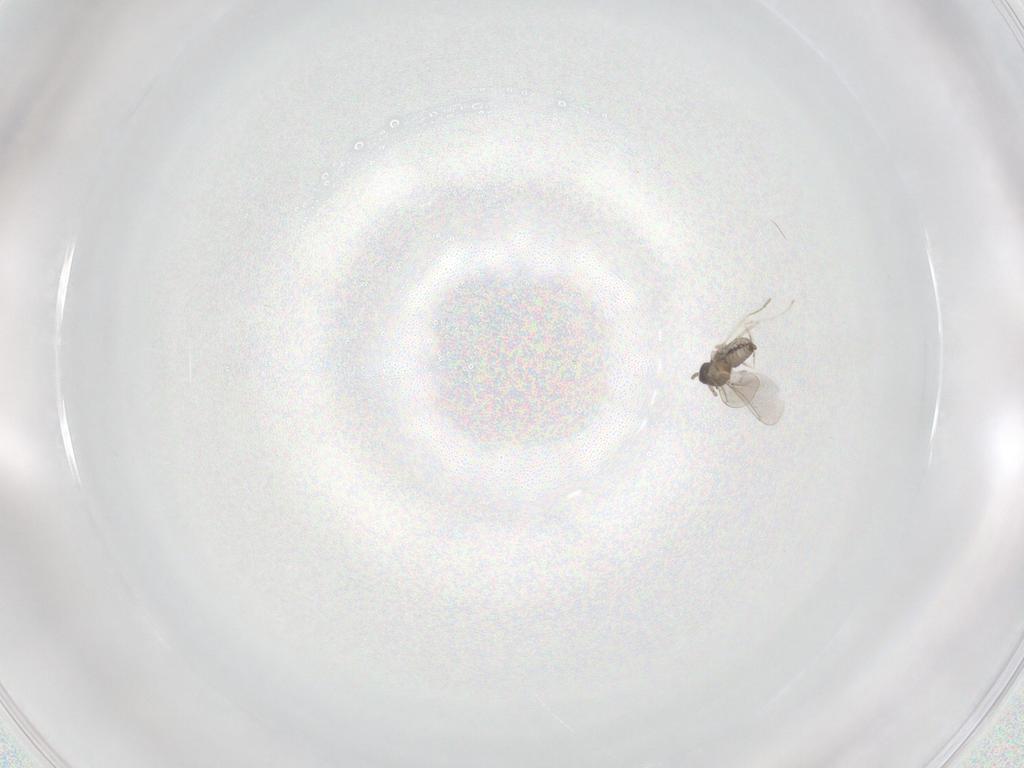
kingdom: Animalia
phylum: Arthropoda
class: Insecta
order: Diptera
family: Cecidomyiidae
